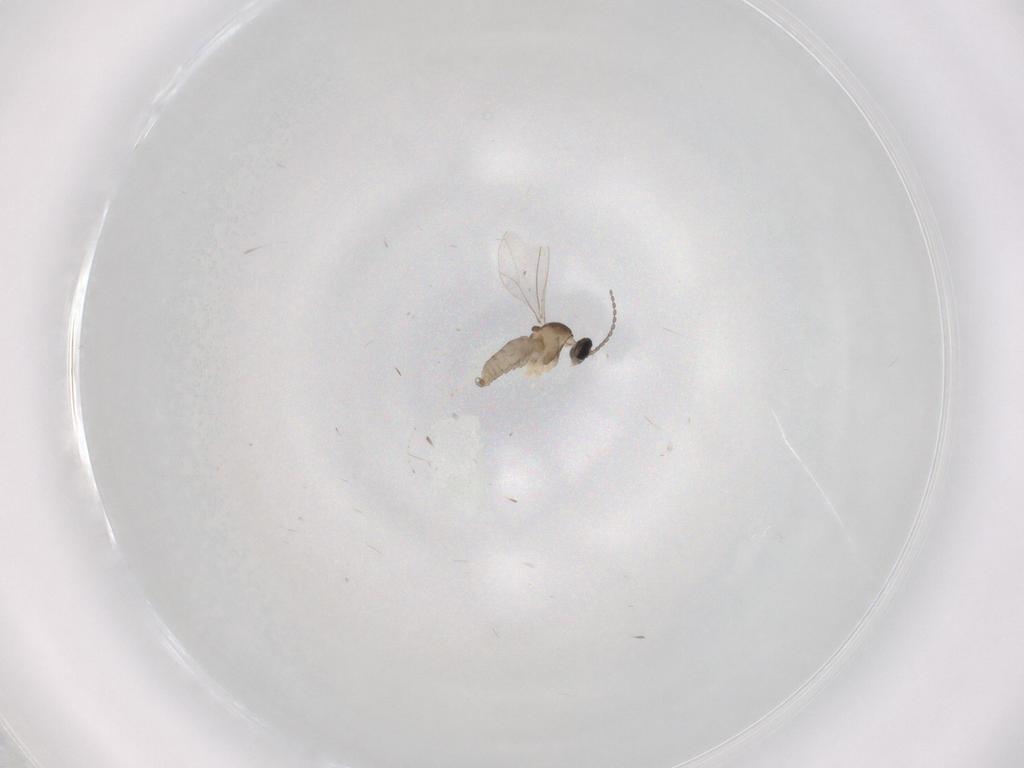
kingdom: Animalia
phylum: Arthropoda
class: Insecta
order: Diptera
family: Cecidomyiidae
